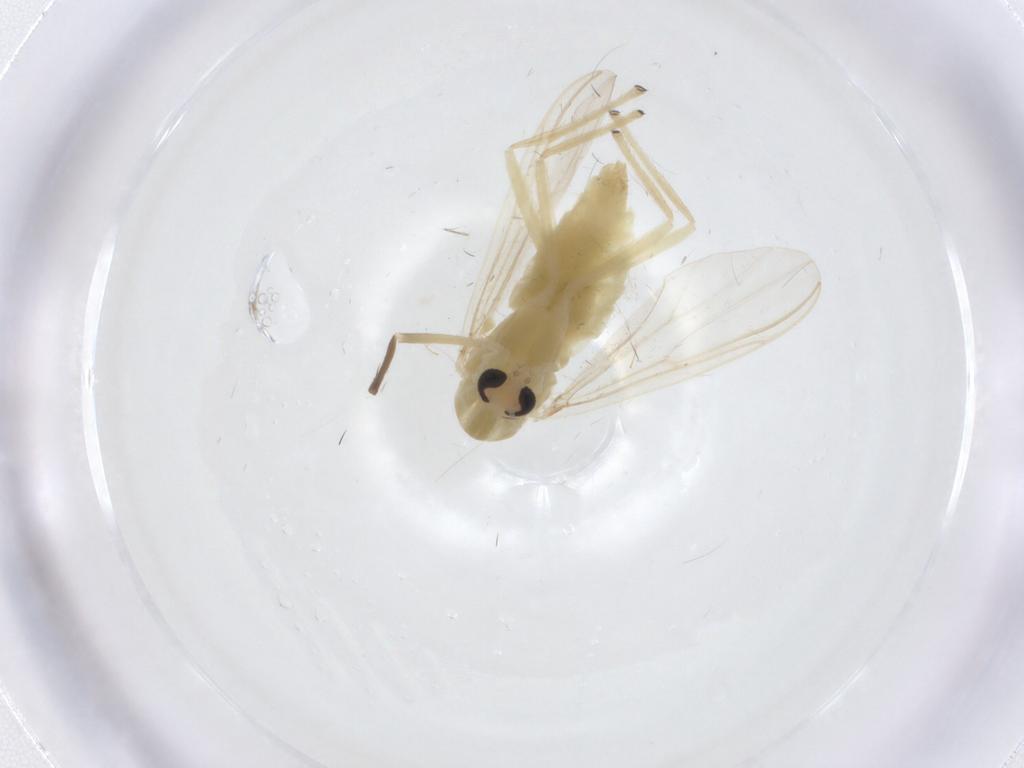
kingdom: Animalia
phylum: Arthropoda
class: Insecta
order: Diptera
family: Chironomidae
